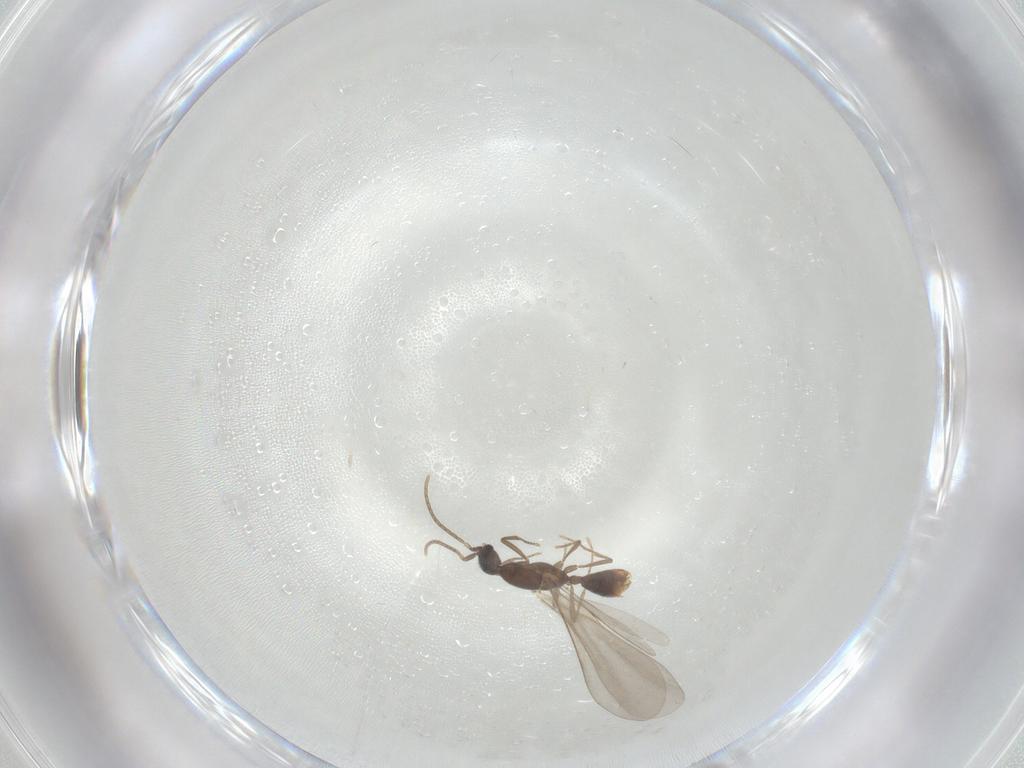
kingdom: Animalia
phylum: Arthropoda
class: Insecta
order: Hymenoptera
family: Formicidae
